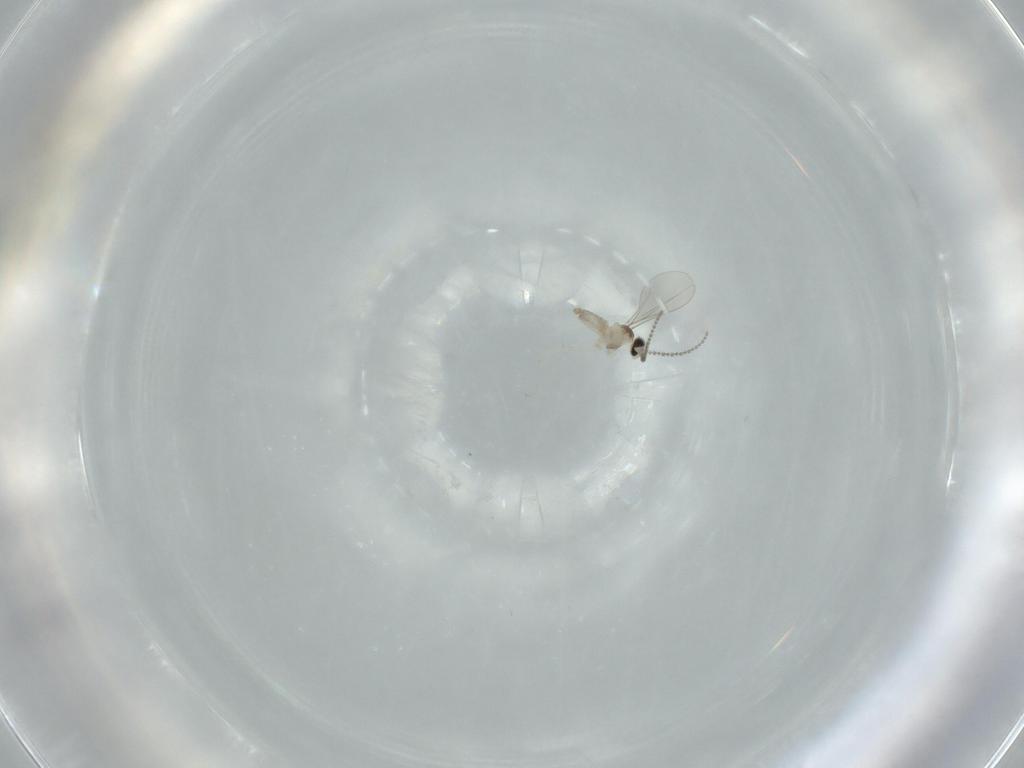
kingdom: Animalia
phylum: Arthropoda
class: Insecta
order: Diptera
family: Cecidomyiidae
